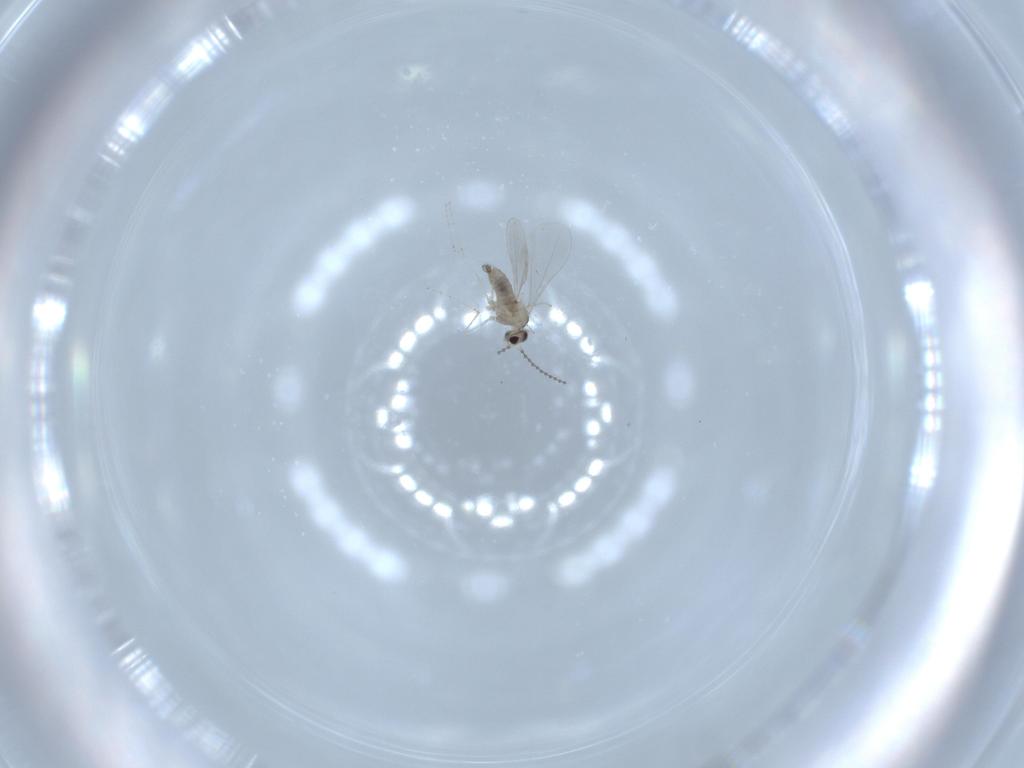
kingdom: Animalia
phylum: Arthropoda
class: Insecta
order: Diptera
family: Cecidomyiidae
